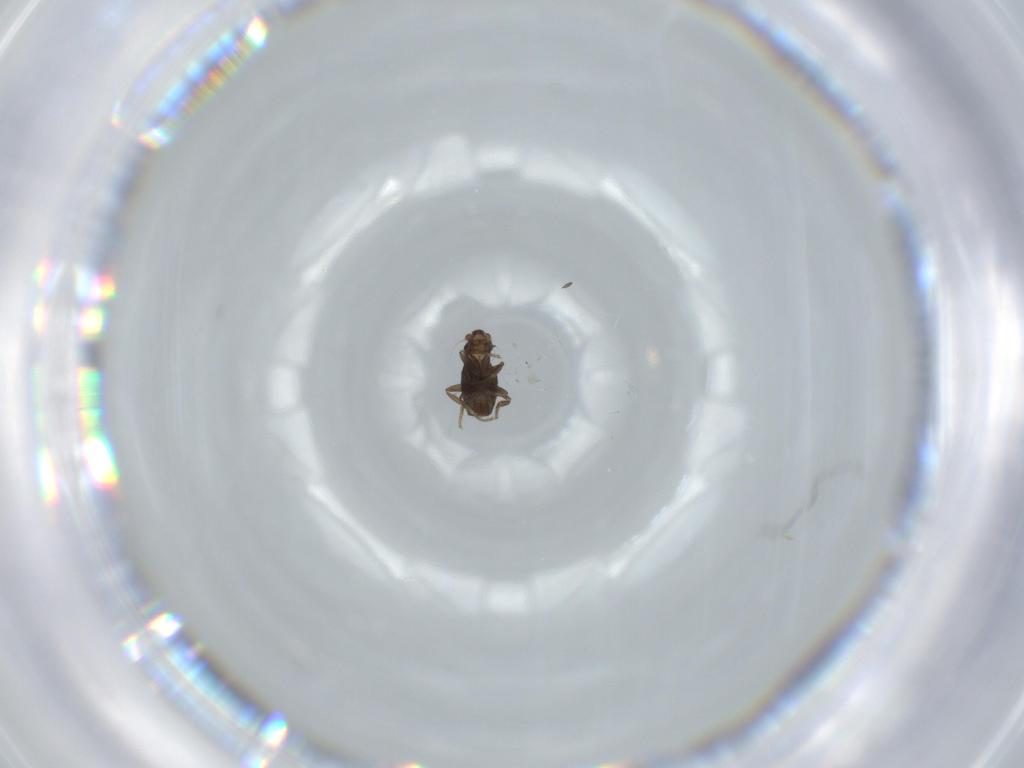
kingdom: Animalia
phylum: Arthropoda
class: Insecta
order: Diptera
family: Phoridae
